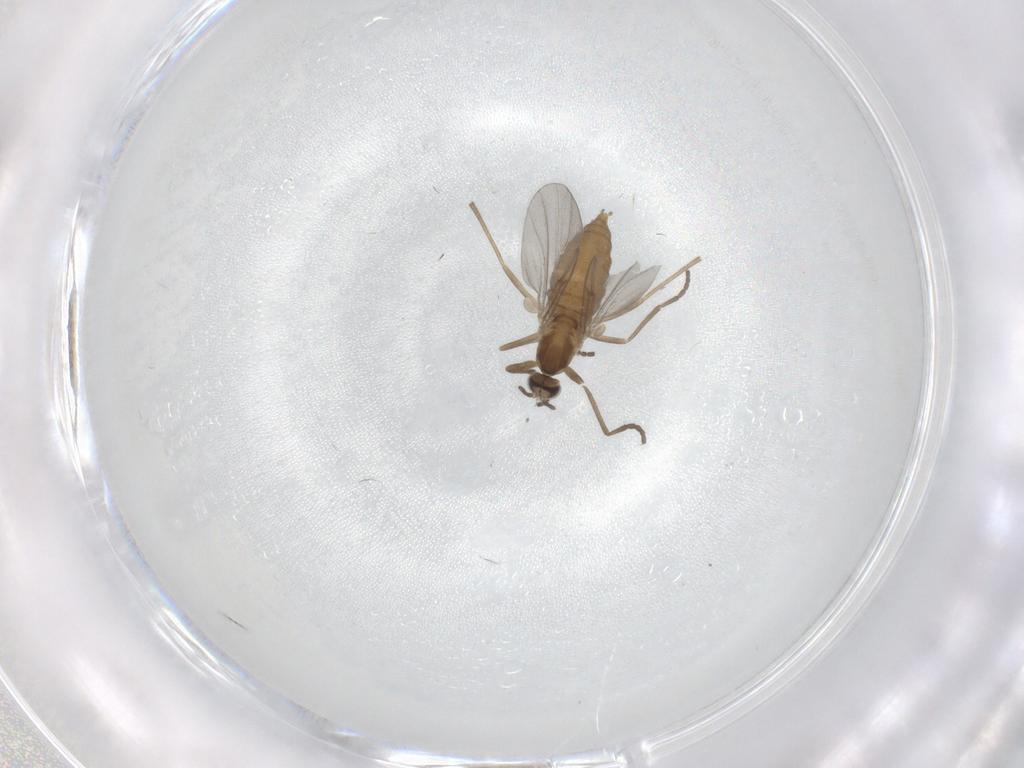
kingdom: Animalia
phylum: Arthropoda
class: Insecta
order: Diptera
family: Cecidomyiidae
